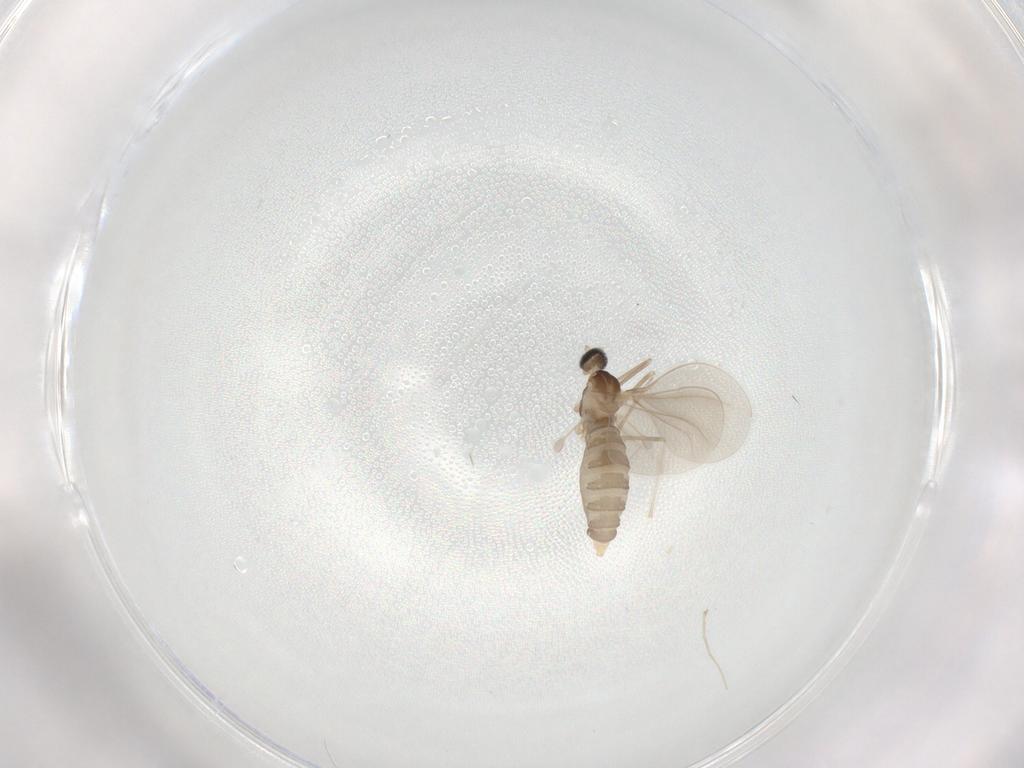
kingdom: Animalia
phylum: Arthropoda
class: Insecta
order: Diptera
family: Cecidomyiidae
